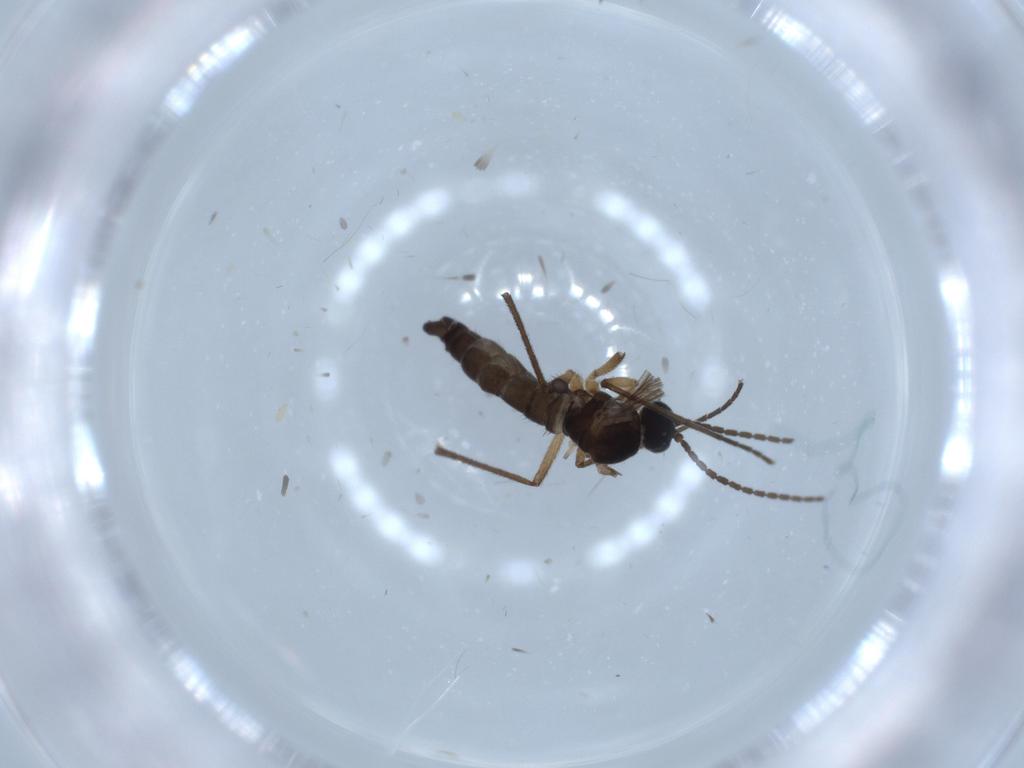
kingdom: Animalia
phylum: Arthropoda
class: Insecta
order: Diptera
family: Sciaridae
